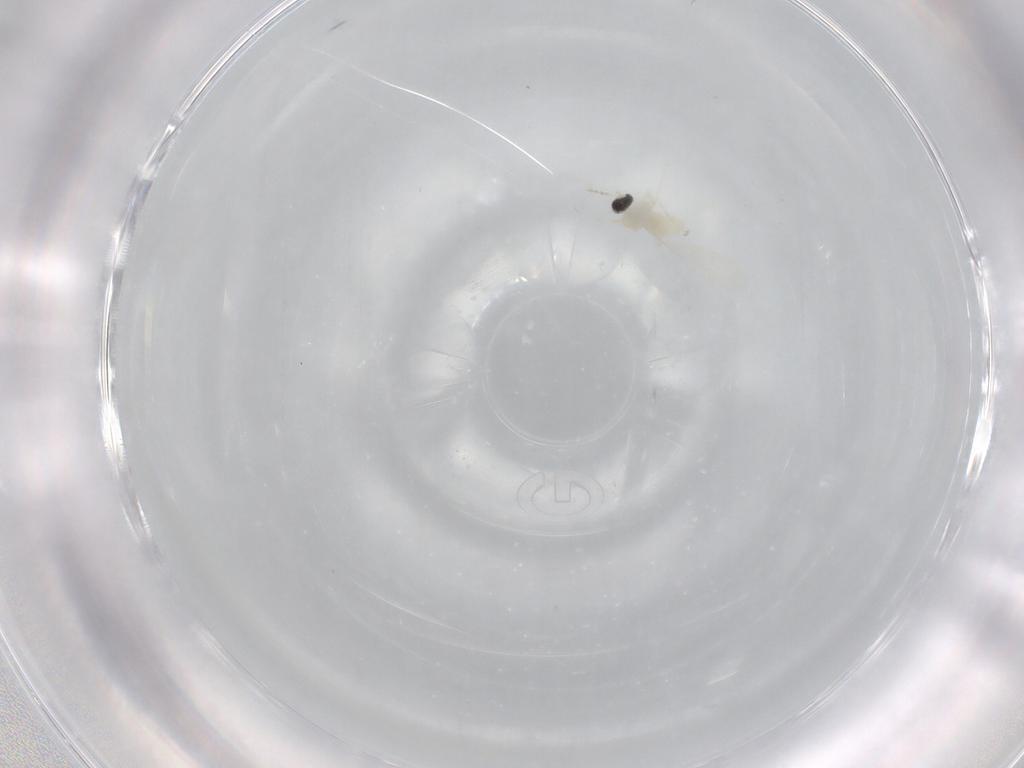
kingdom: Animalia
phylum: Arthropoda
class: Insecta
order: Diptera
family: Cecidomyiidae
